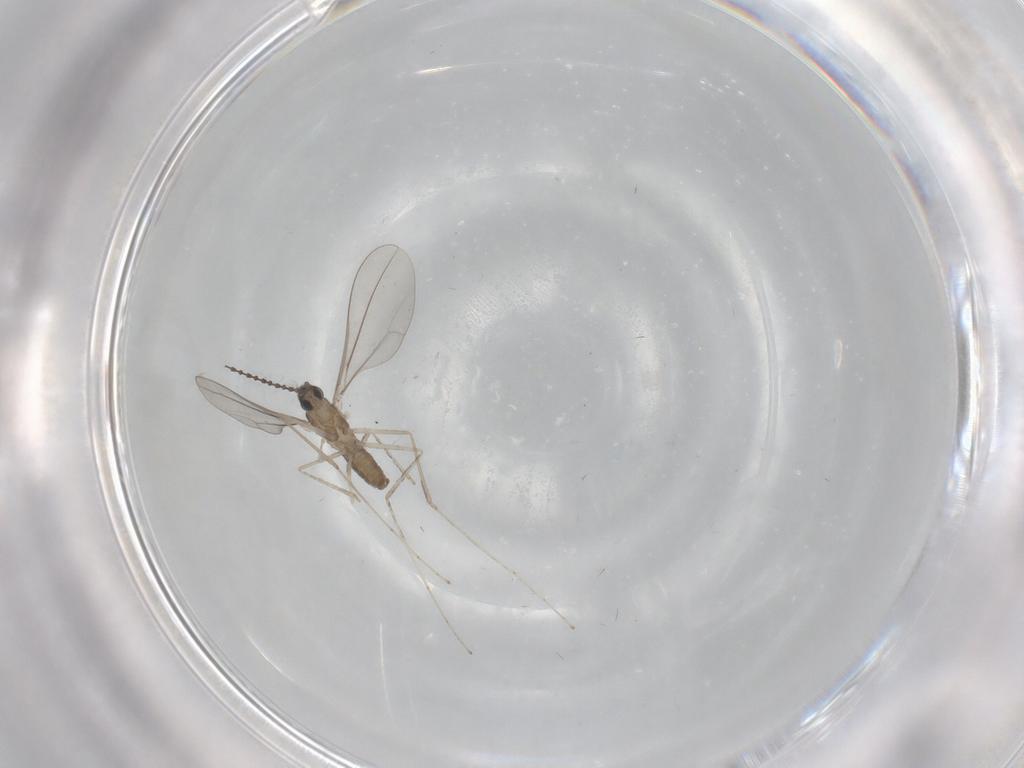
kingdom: Animalia
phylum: Arthropoda
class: Insecta
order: Diptera
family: Cecidomyiidae
